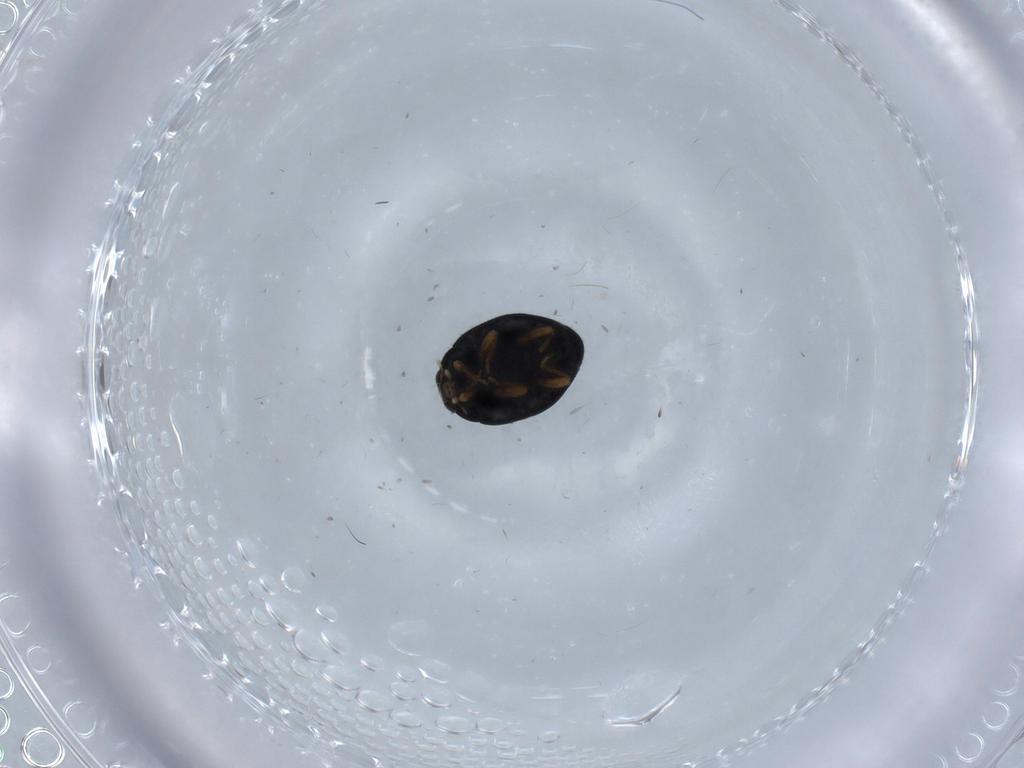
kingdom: Animalia
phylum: Arthropoda
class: Insecta
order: Coleoptera
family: Coccinellidae
